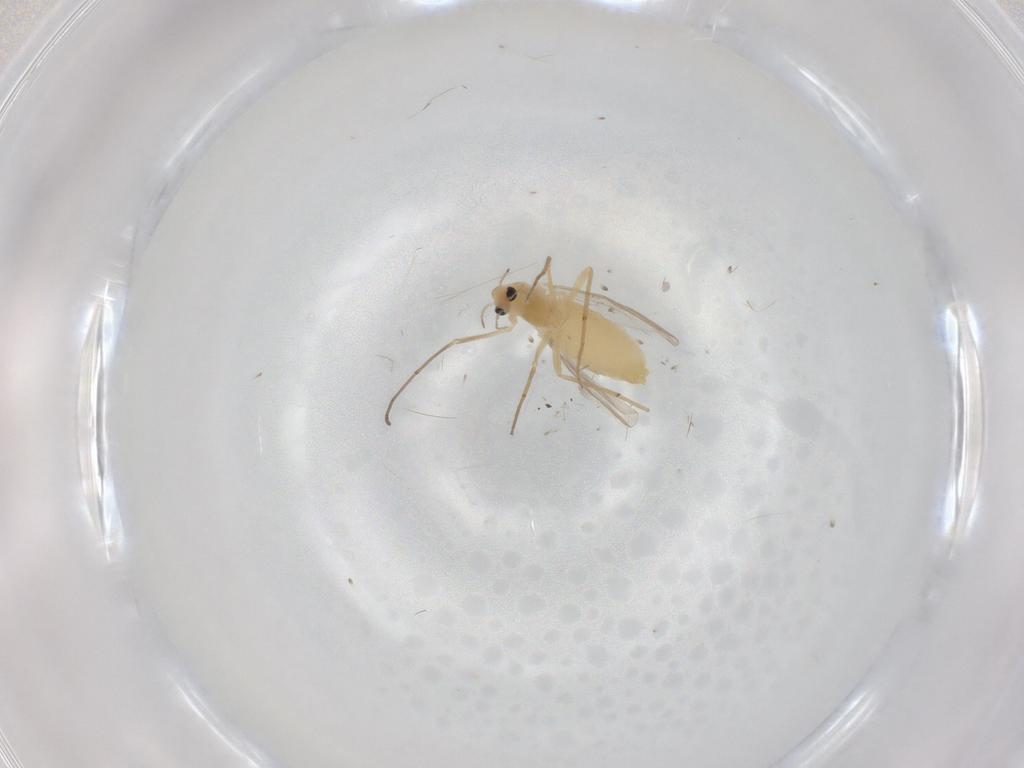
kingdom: Animalia
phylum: Arthropoda
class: Insecta
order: Diptera
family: Chironomidae
